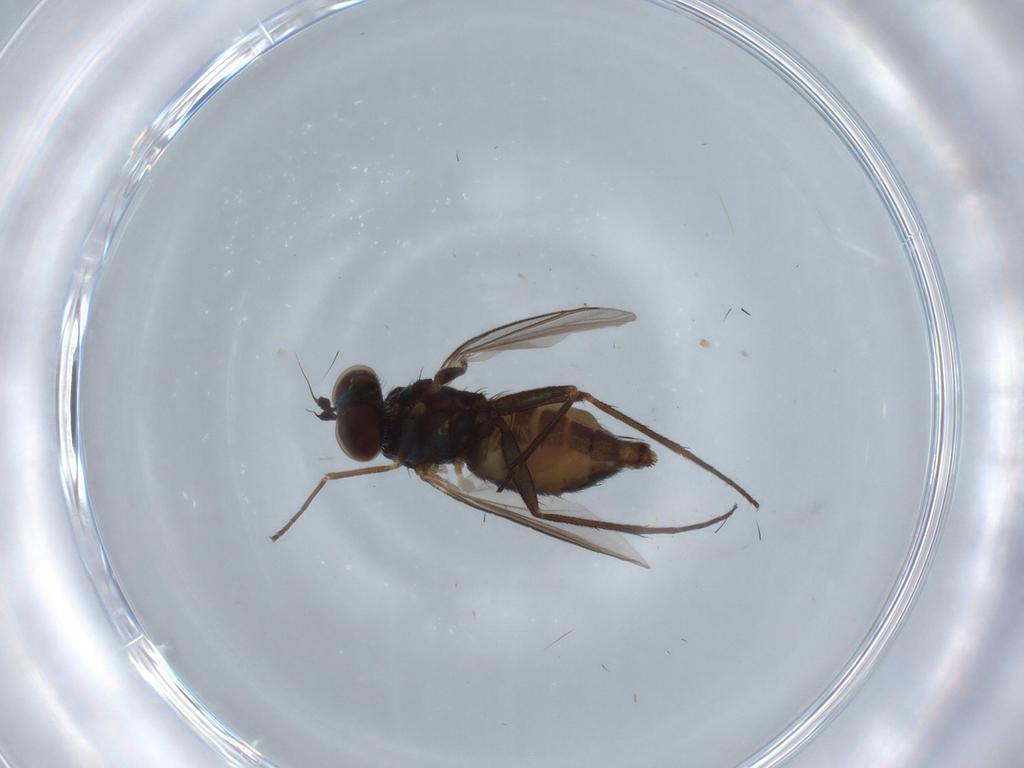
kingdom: Animalia
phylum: Arthropoda
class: Insecta
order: Diptera
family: Dolichopodidae
